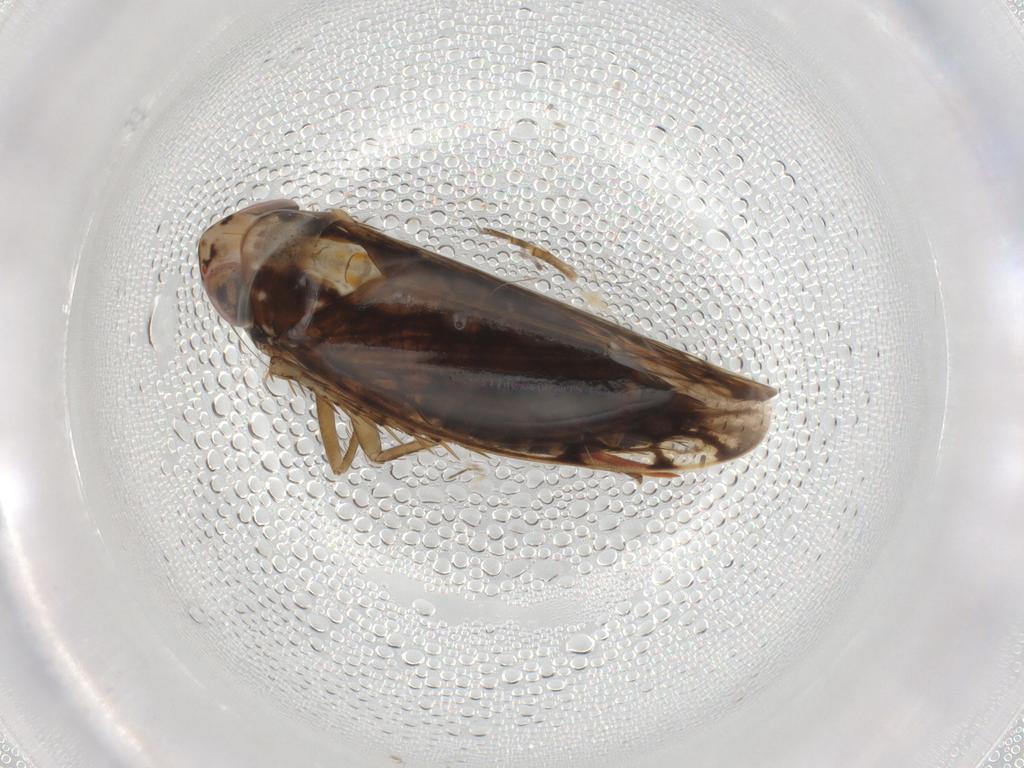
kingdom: Animalia
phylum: Arthropoda
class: Insecta
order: Hemiptera
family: Cicadellidae
